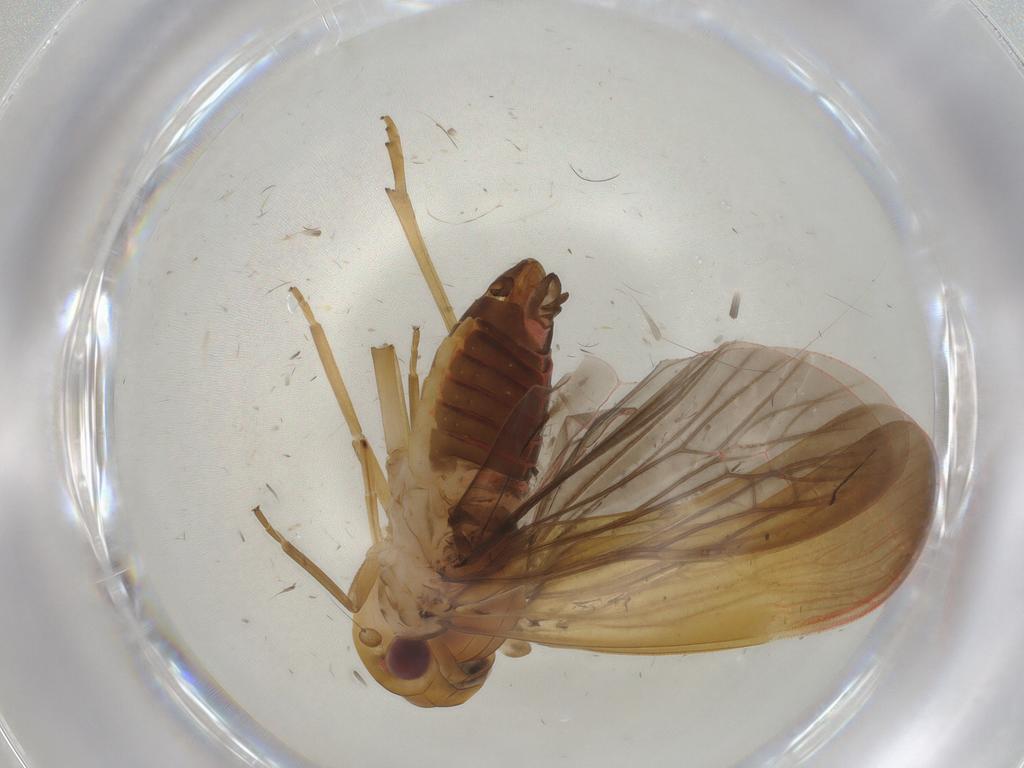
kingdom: Animalia
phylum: Arthropoda
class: Insecta
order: Hemiptera
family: Achilidae
